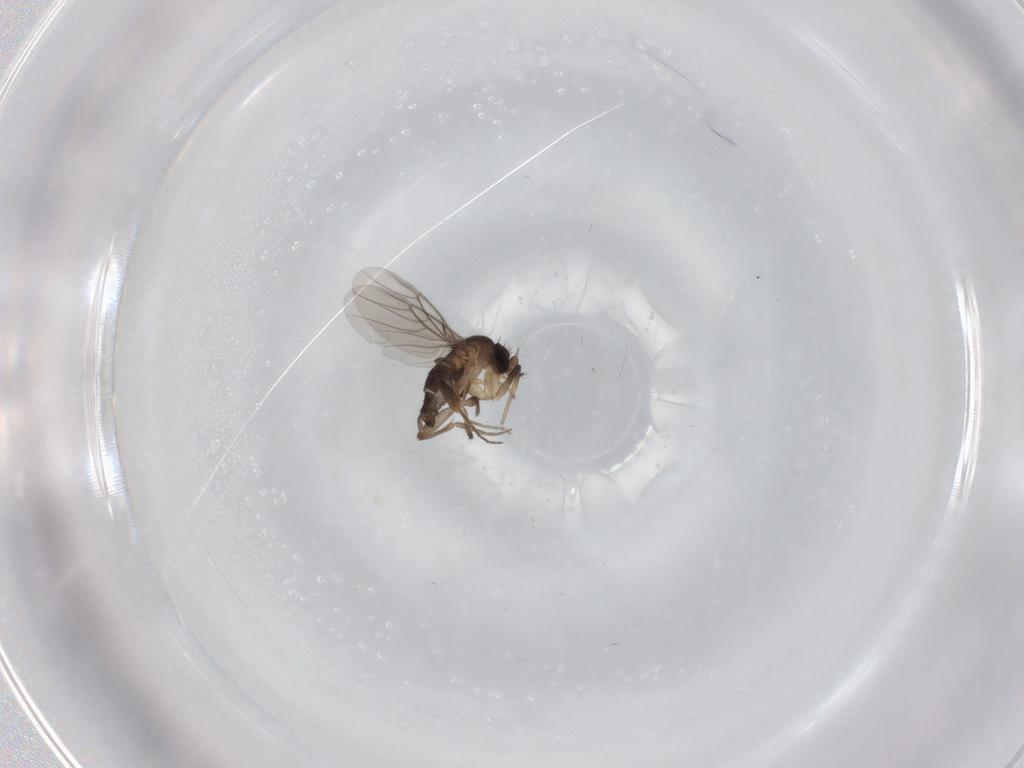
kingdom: Animalia
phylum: Arthropoda
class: Insecta
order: Diptera
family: Phoridae
